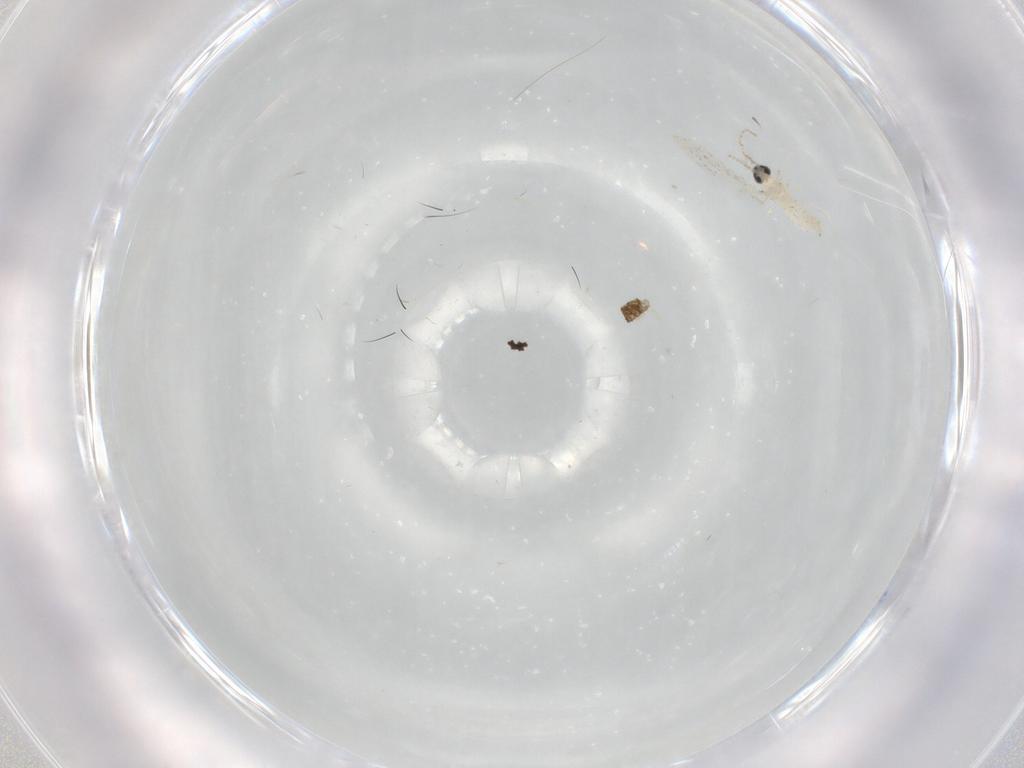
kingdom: Animalia
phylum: Arthropoda
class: Insecta
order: Diptera
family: Cecidomyiidae
